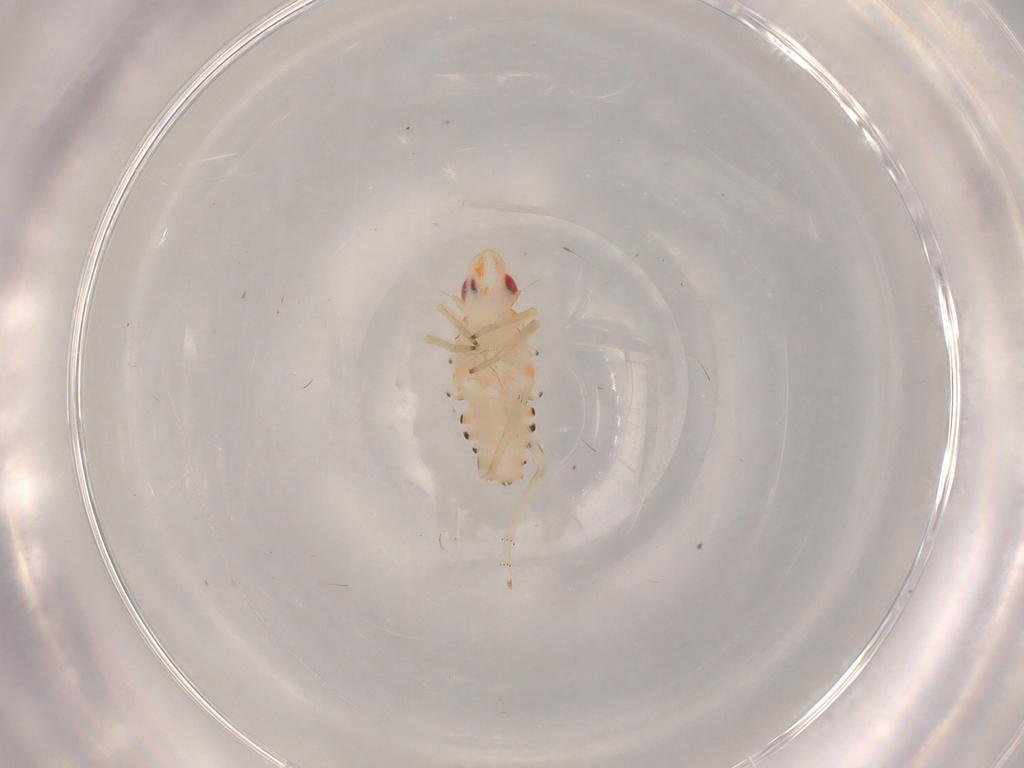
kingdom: Animalia
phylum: Arthropoda
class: Insecta
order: Hemiptera
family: Tropiduchidae
